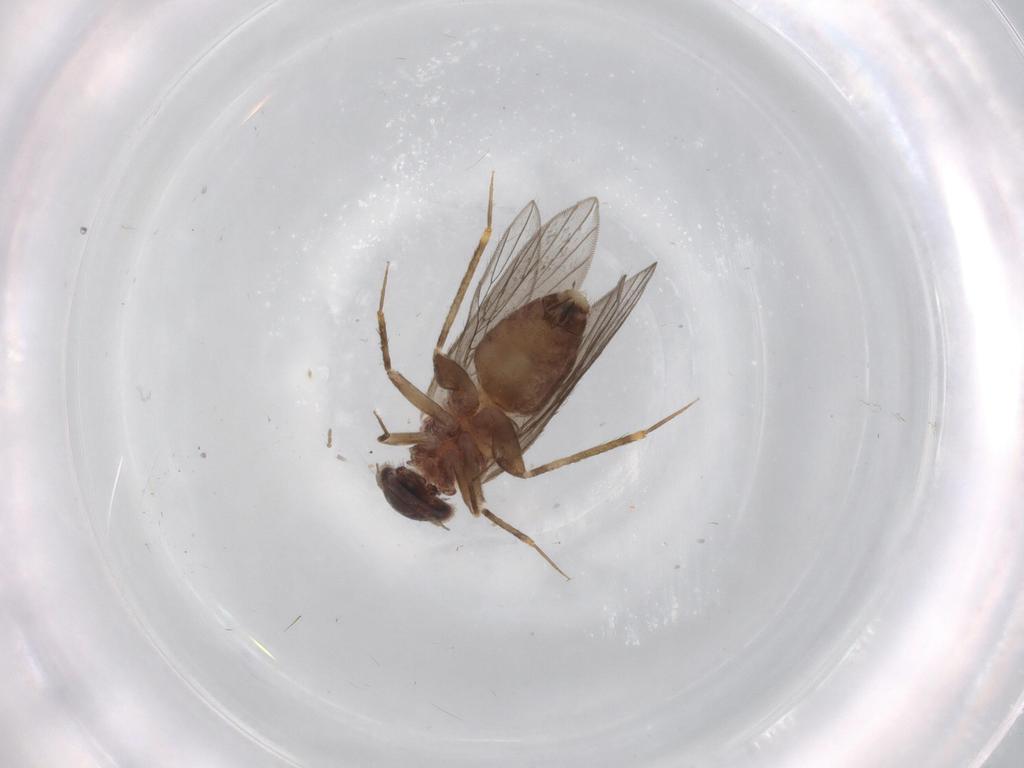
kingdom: Animalia
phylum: Arthropoda
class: Insecta
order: Psocodea
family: Lepidopsocidae
